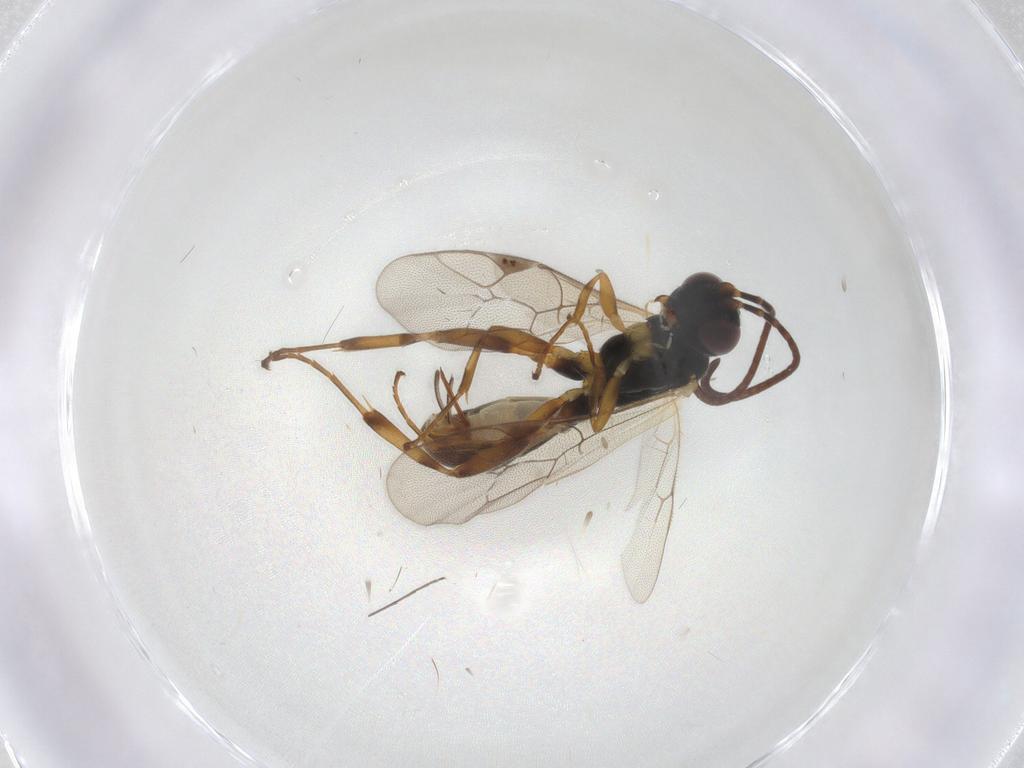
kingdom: Animalia
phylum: Arthropoda
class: Insecta
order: Hymenoptera
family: Ichneumonidae
